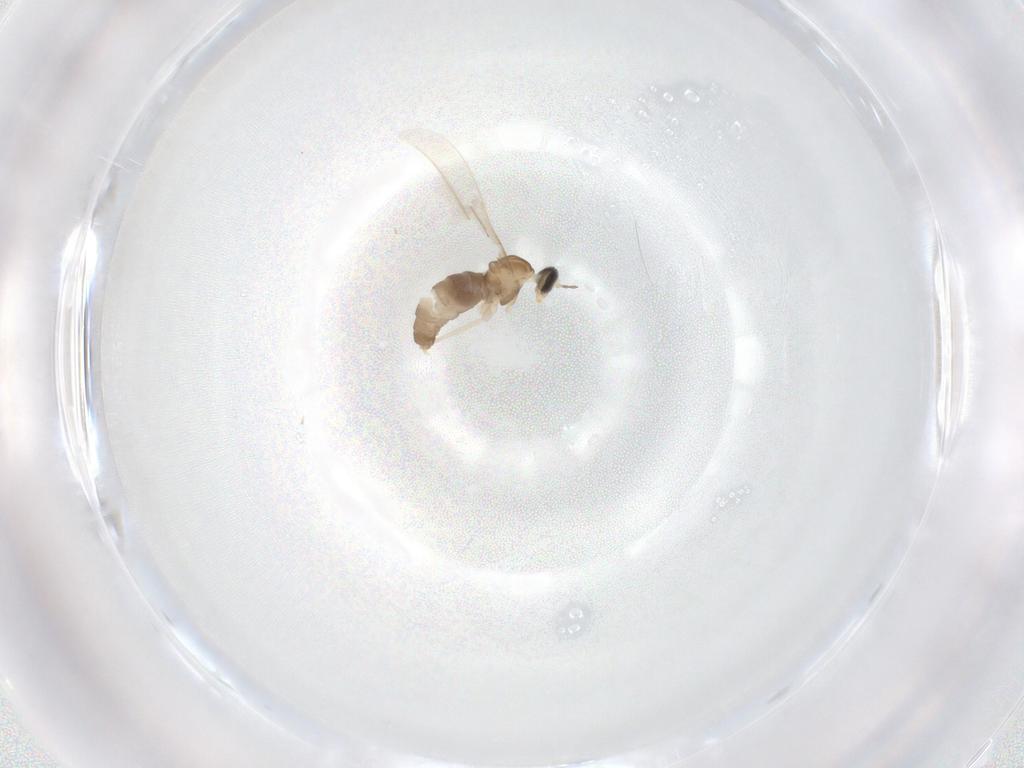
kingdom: Animalia
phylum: Arthropoda
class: Insecta
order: Diptera
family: Cecidomyiidae
